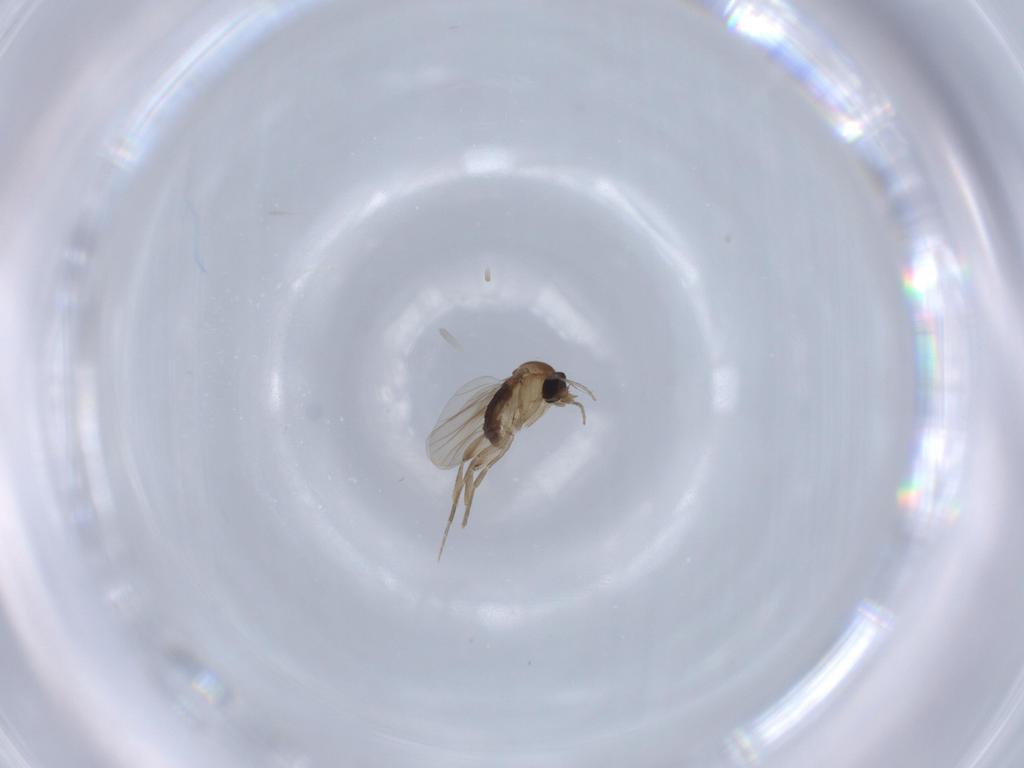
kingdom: Animalia
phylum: Arthropoda
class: Insecta
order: Diptera
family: Phoridae
